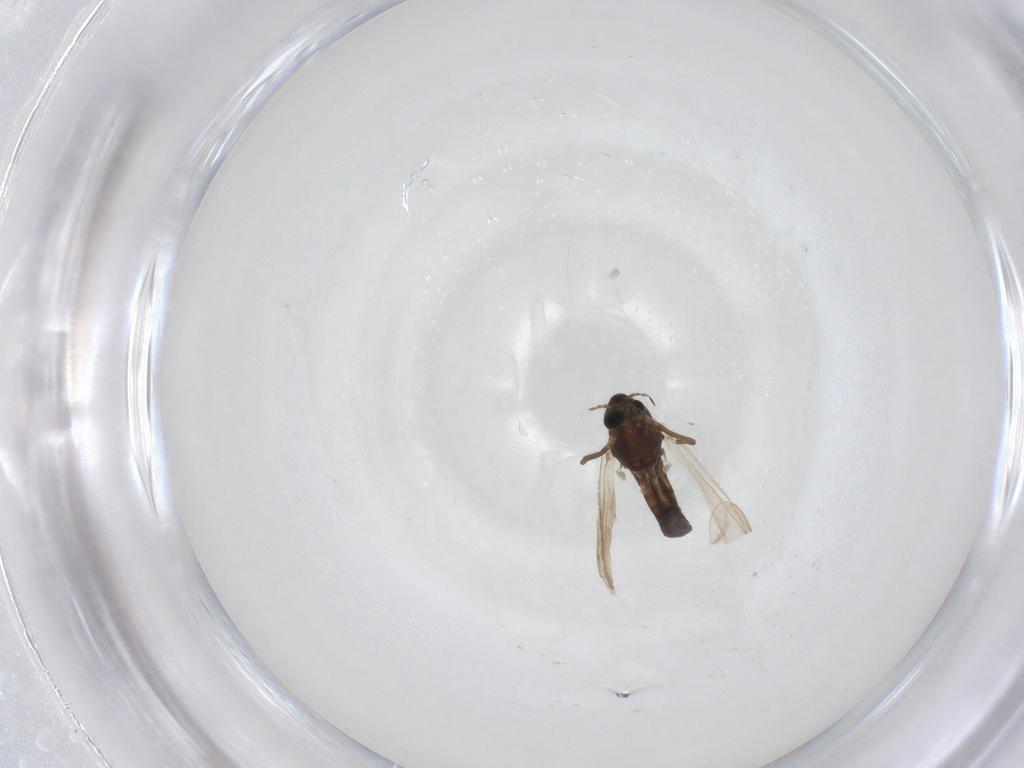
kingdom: Animalia
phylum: Arthropoda
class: Insecta
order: Diptera
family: Chironomidae
